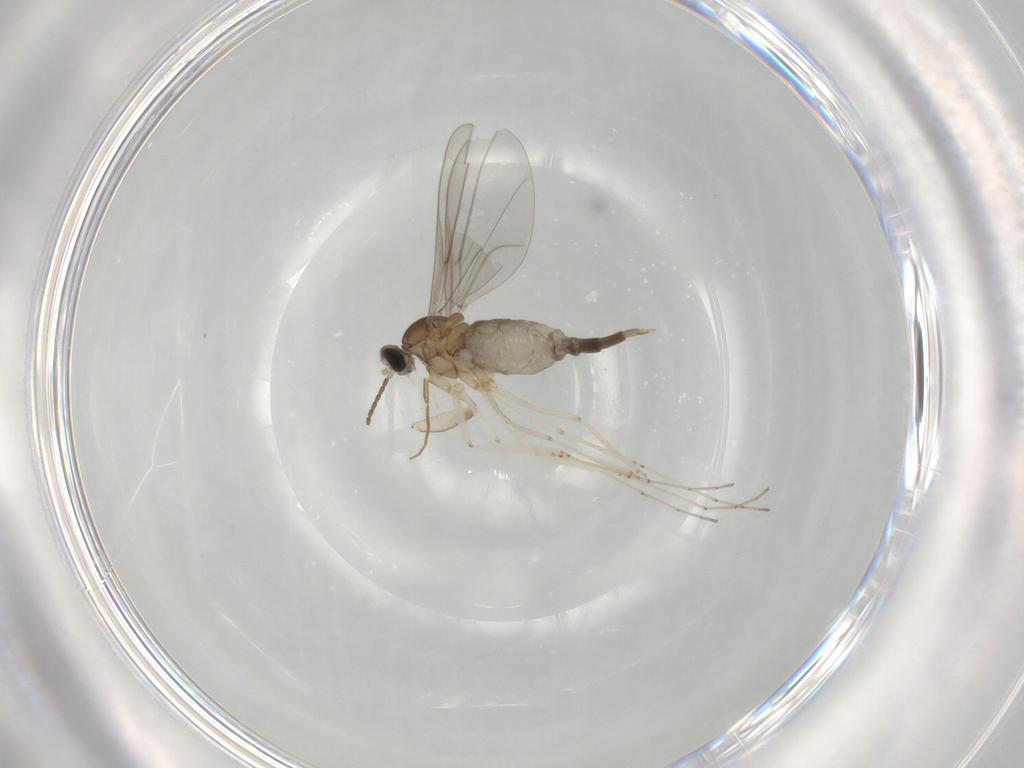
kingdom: Animalia
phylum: Arthropoda
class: Insecta
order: Diptera
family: Cecidomyiidae
